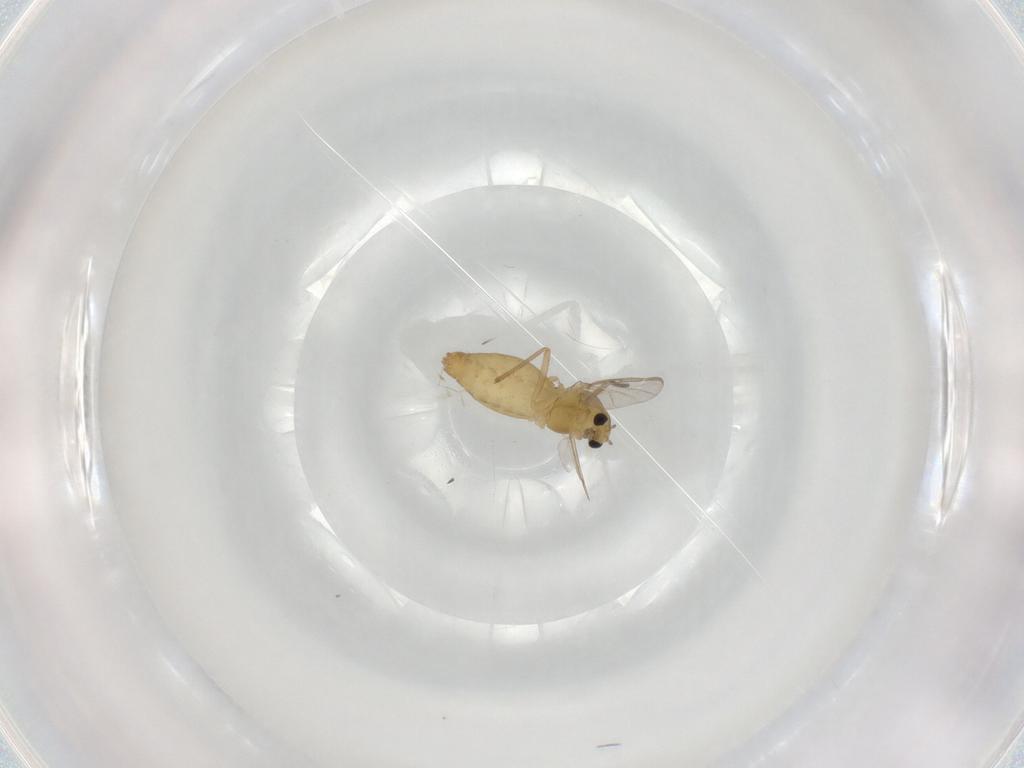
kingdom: Animalia
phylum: Arthropoda
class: Insecta
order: Diptera
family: Chironomidae
